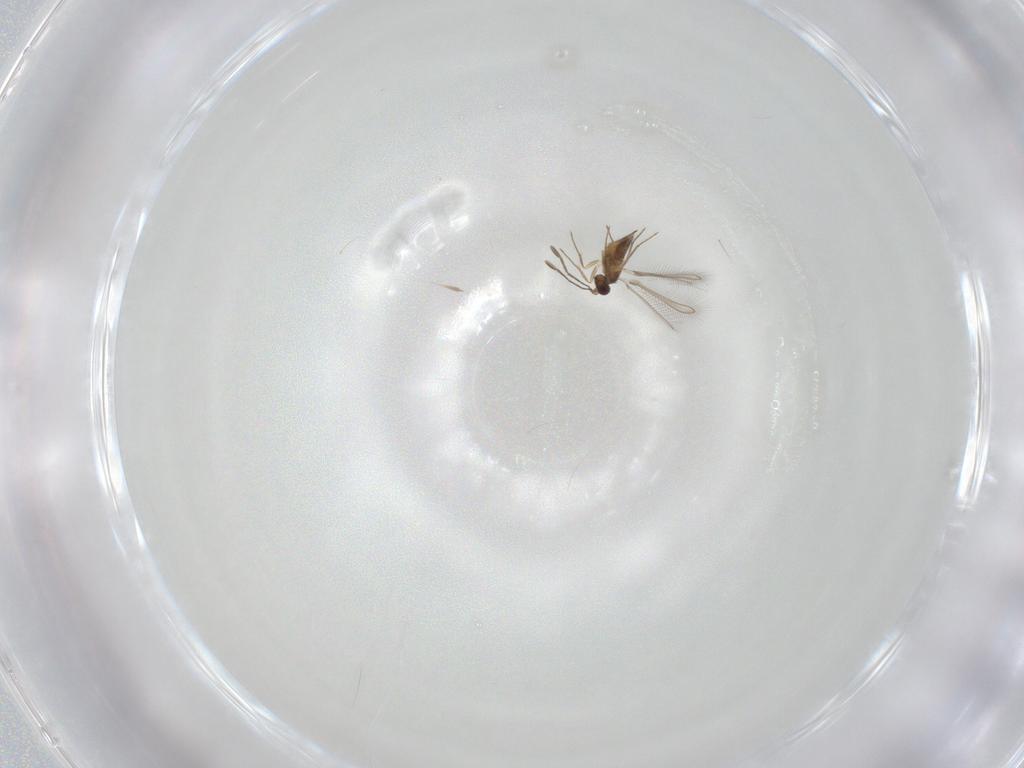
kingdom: Animalia
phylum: Arthropoda
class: Insecta
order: Hymenoptera
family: Mymaridae
